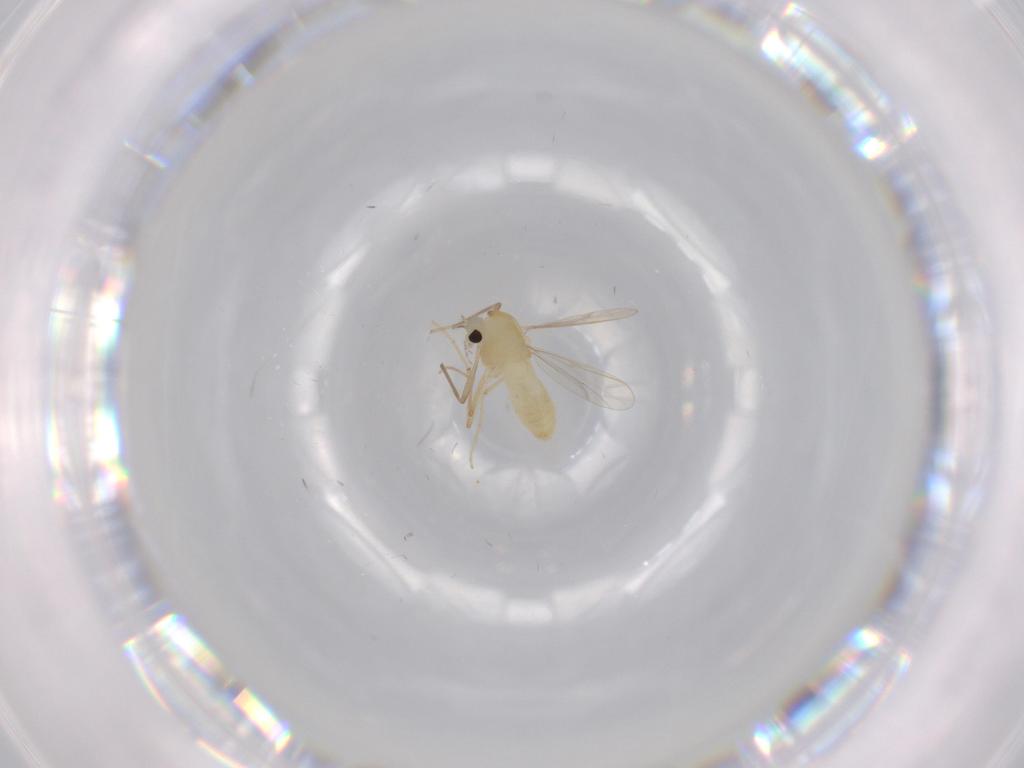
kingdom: Animalia
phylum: Arthropoda
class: Insecta
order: Diptera
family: Chironomidae
